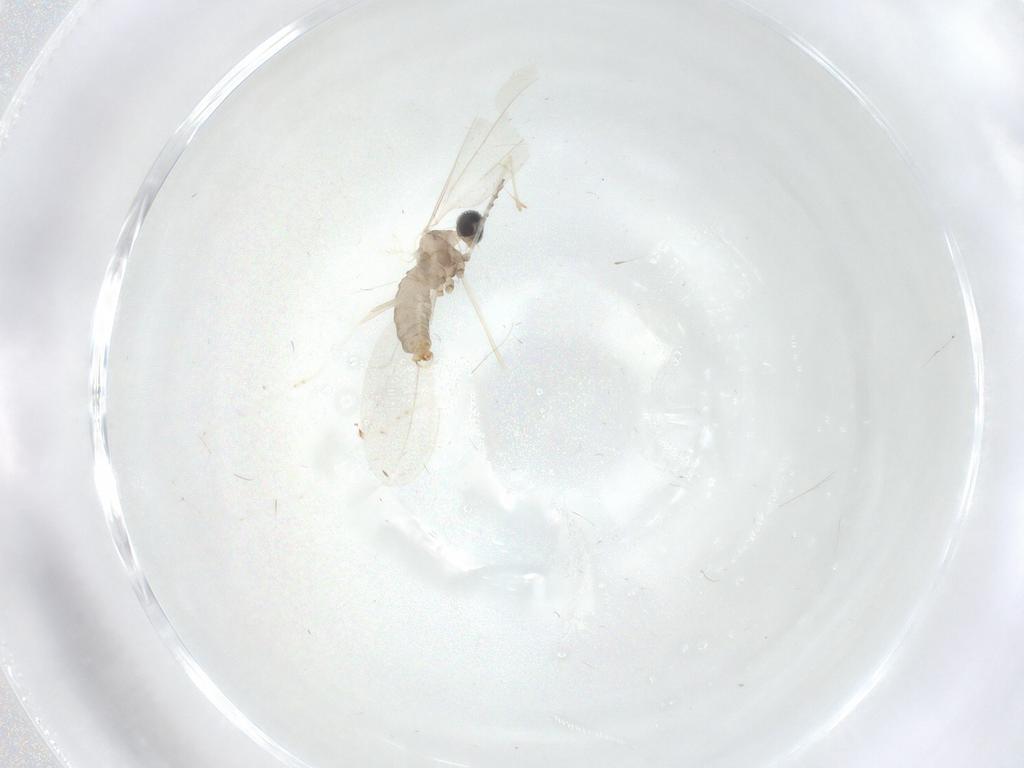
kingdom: Animalia
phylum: Arthropoda
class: Insecta
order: Diptera
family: Cecidomyiidae
